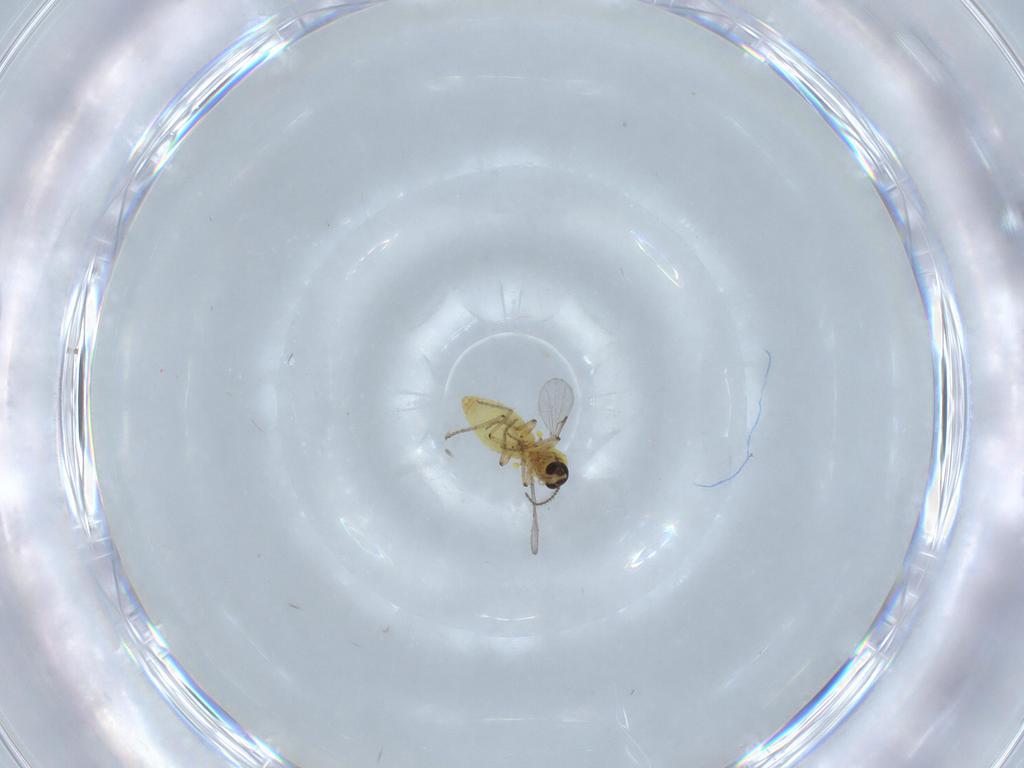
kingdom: Animalia
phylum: Arthropoda
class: Insecta
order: Diptera
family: Ceratopogonidae
